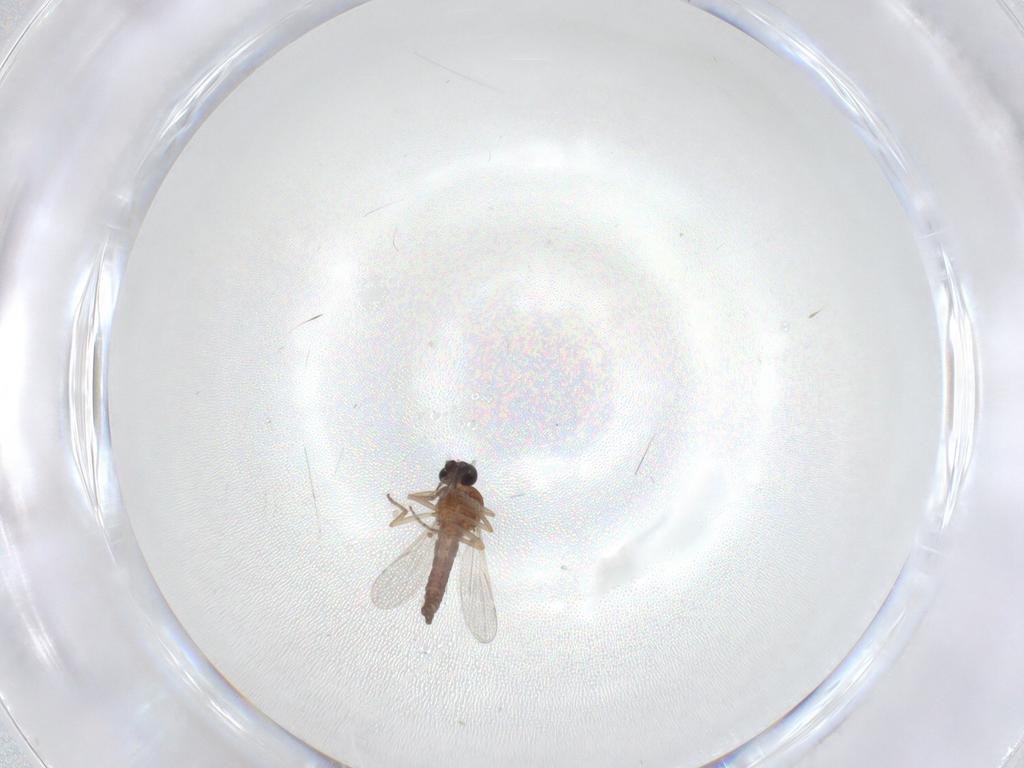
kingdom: Animalia
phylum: Arthropoda
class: Insecta
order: Diptera
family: Ceratopogonidae
